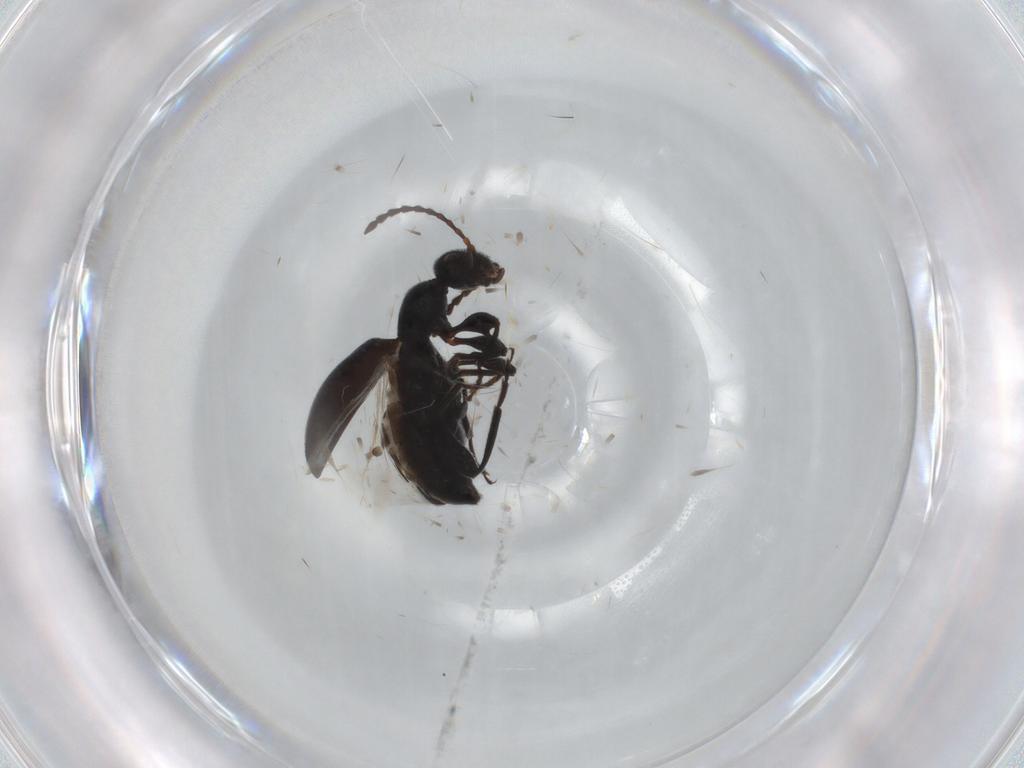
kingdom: Animalia
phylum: Arthropoda
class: Insecta
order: Coleoptera
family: Anthicidae
